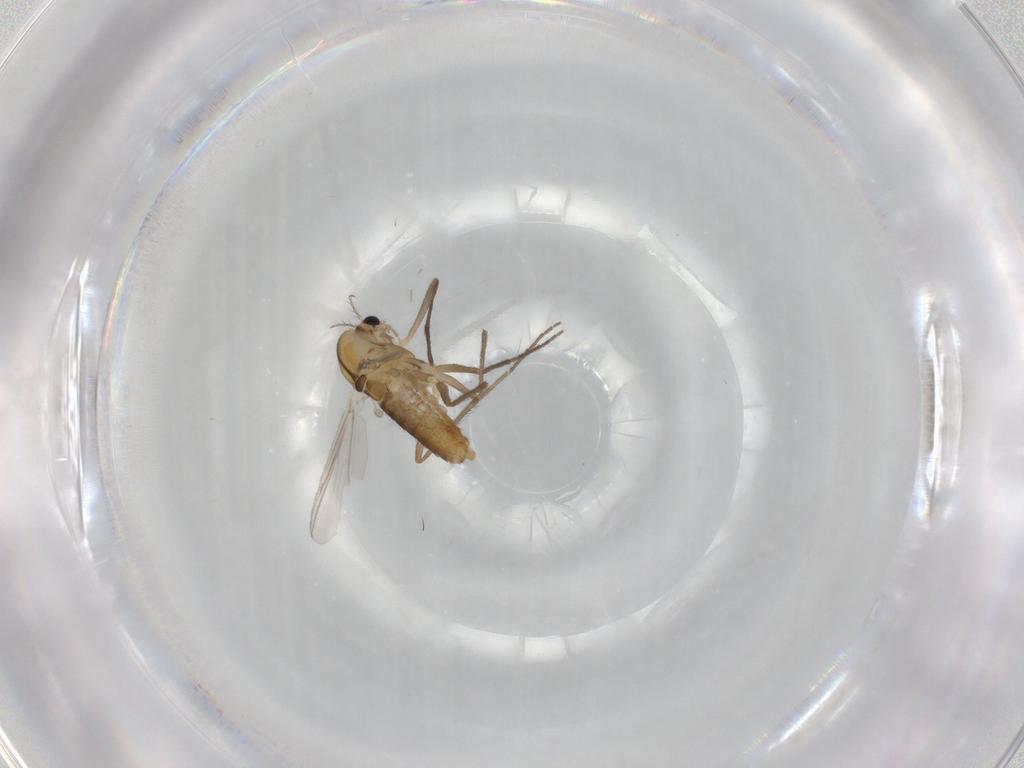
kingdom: Animalia
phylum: Arthropoda
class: Insecta
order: Diptera
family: Chironomidae
